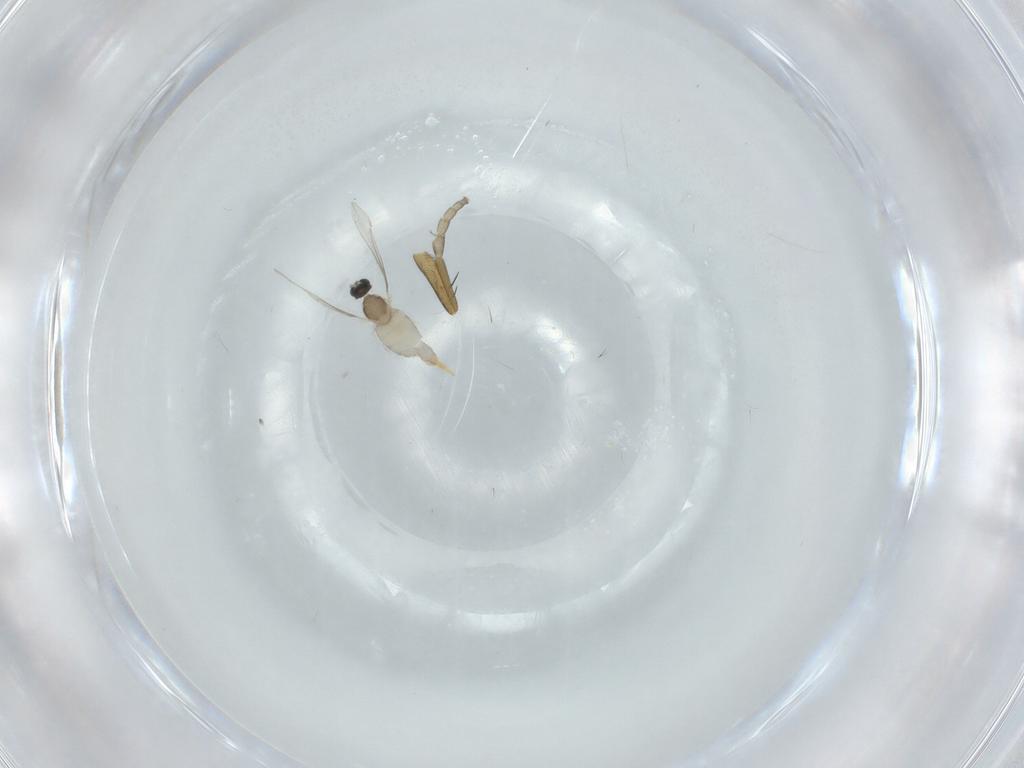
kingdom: Animalia
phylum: Arthropoda
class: Insecta
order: Diptera
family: Cecidomyiidae
